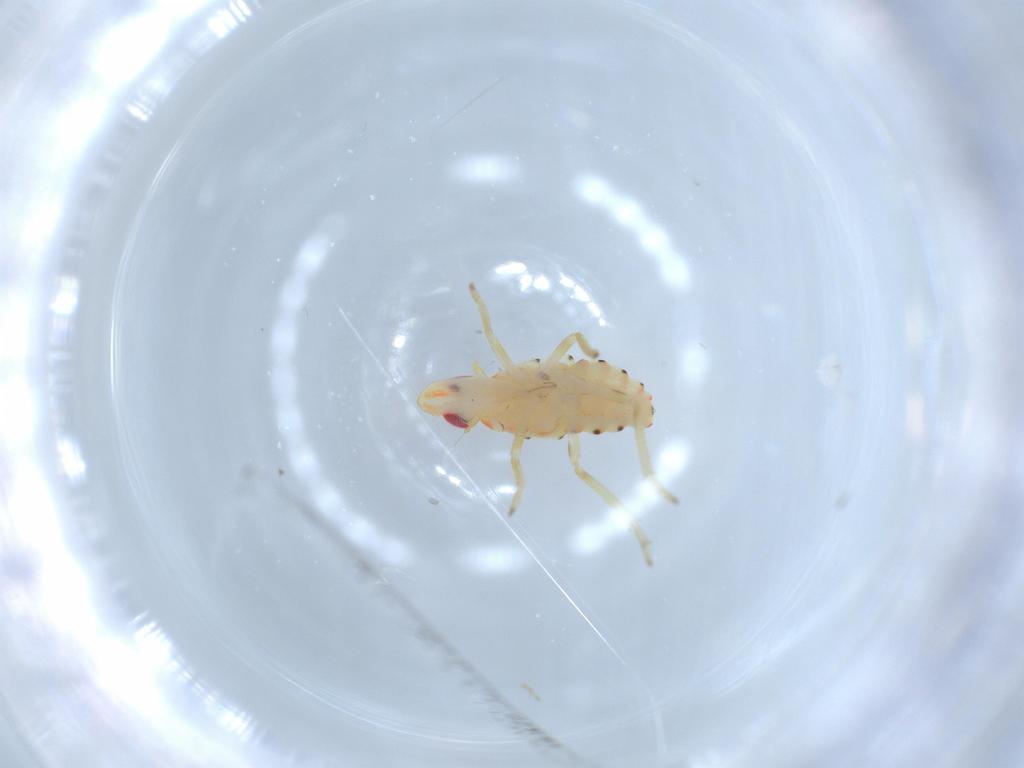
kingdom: Animalia
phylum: Arthropoda
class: Insecta
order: Hemiptera
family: Tropiduchidae
